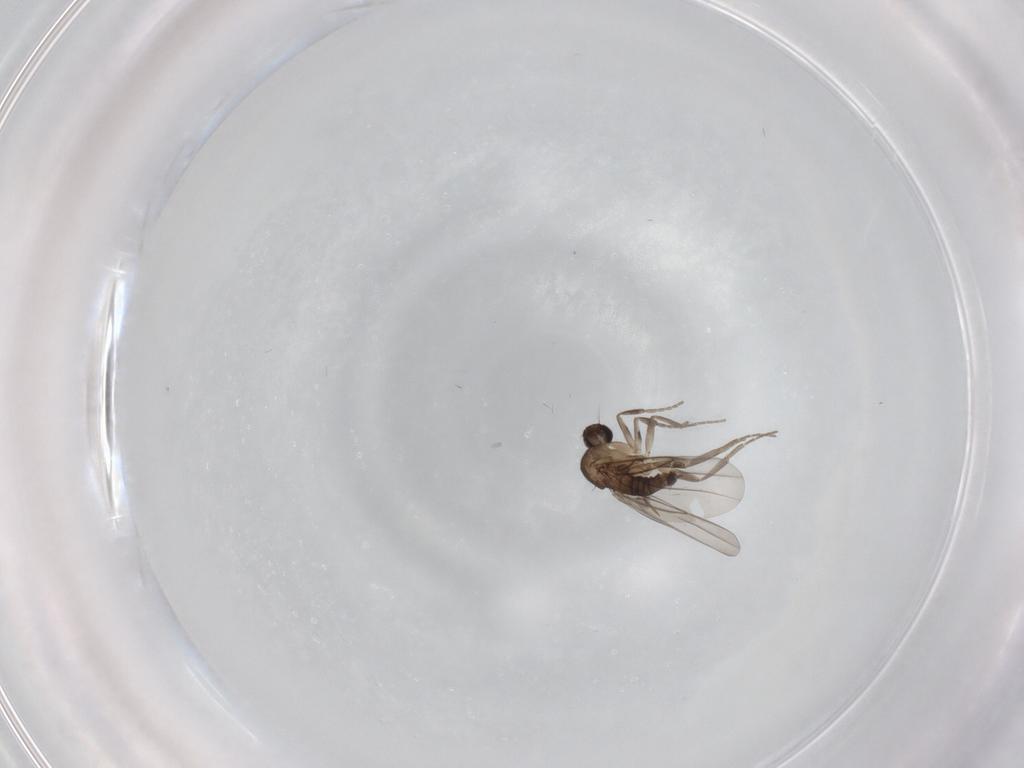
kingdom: Animalia
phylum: Arthropoda
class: Insecta
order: Diptera
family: Phoridae
